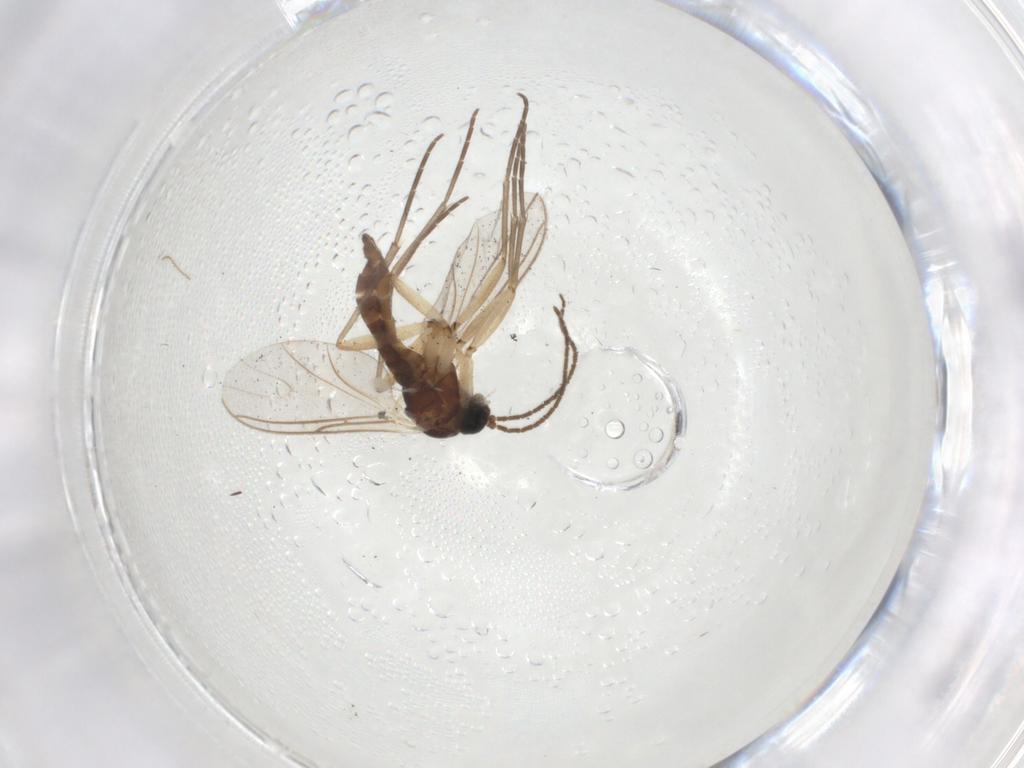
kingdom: Animalia
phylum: Arthropoda
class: Insecta
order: Diptera
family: Sciaridae
